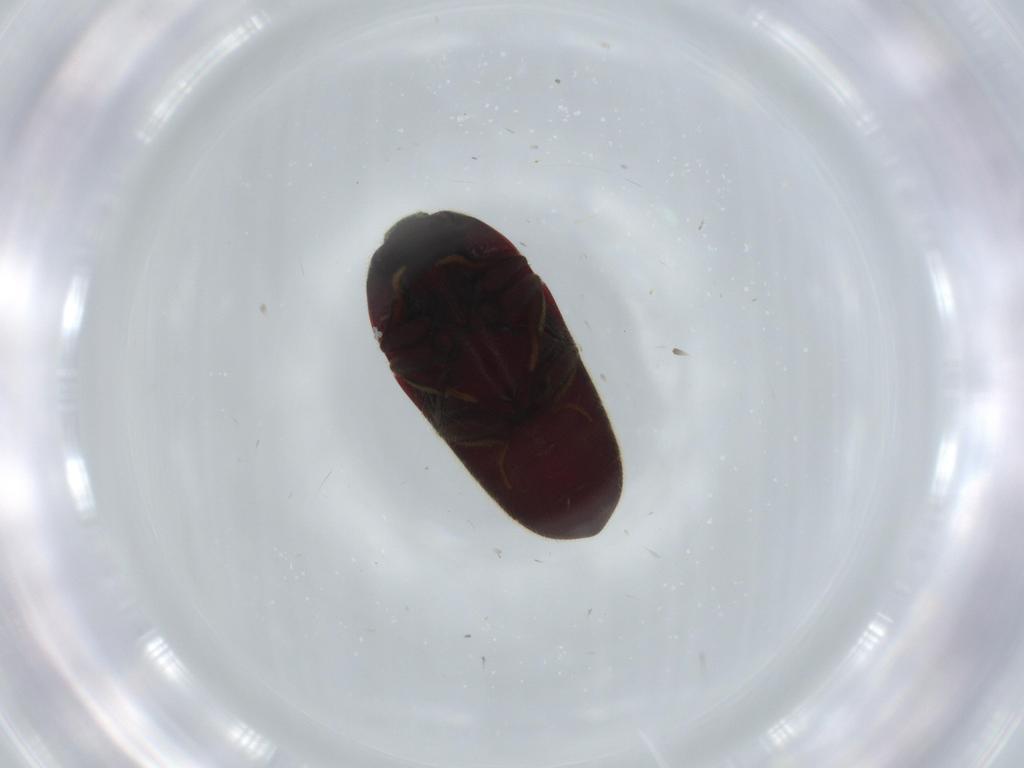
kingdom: Animalia
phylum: Arthropoda
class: Insecta
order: Coleoptera
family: Throscidae
